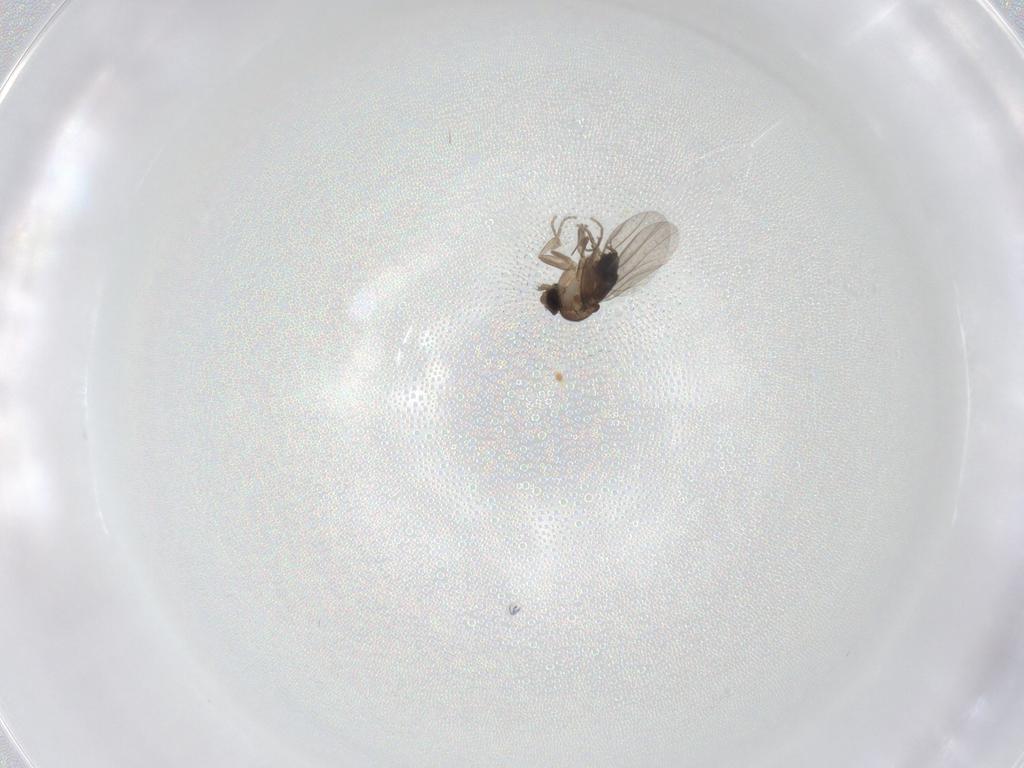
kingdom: Animalia
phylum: Arthropoda
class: Insecta
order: Diptera
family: Phoridae
